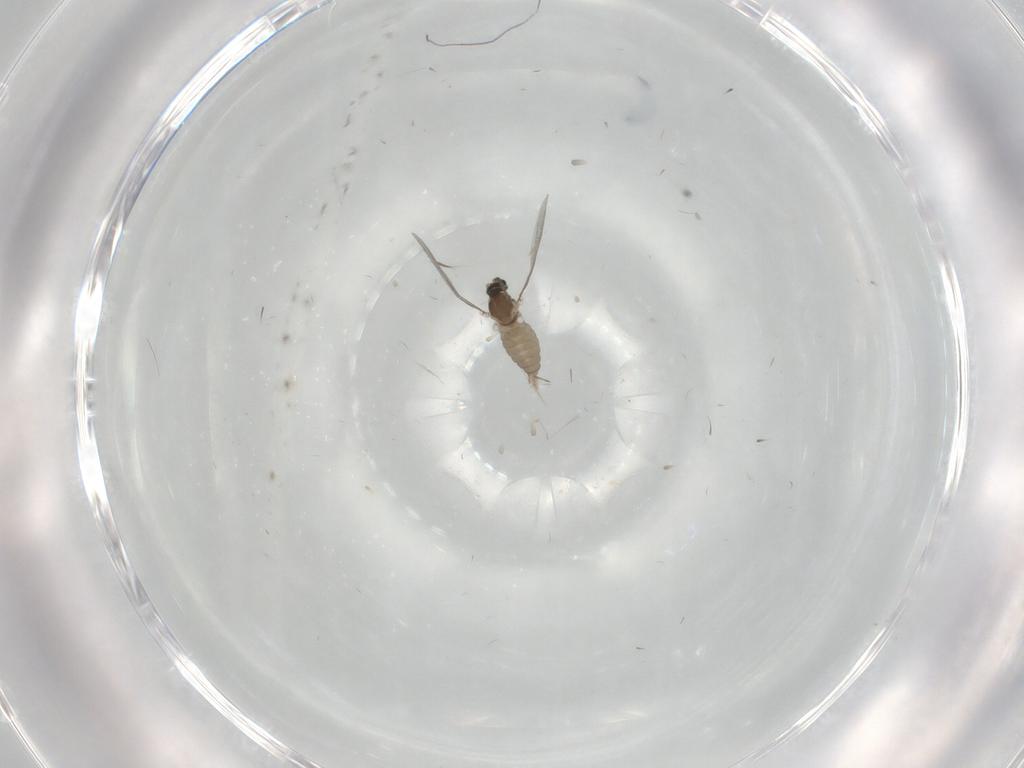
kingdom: Animalia
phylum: Arthropoda
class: Insecta
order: Diptera
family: Cecidomyiidae
